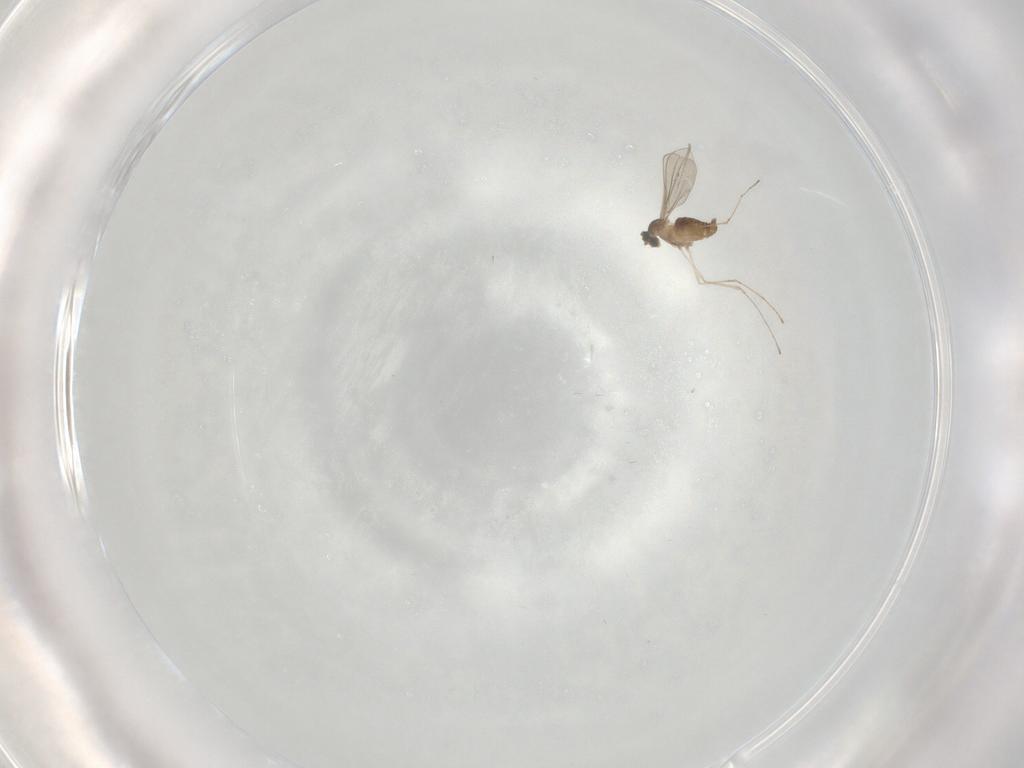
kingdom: Animalia
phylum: Arthropoda
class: Insecta
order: Diptera
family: Cecidomyiidae
